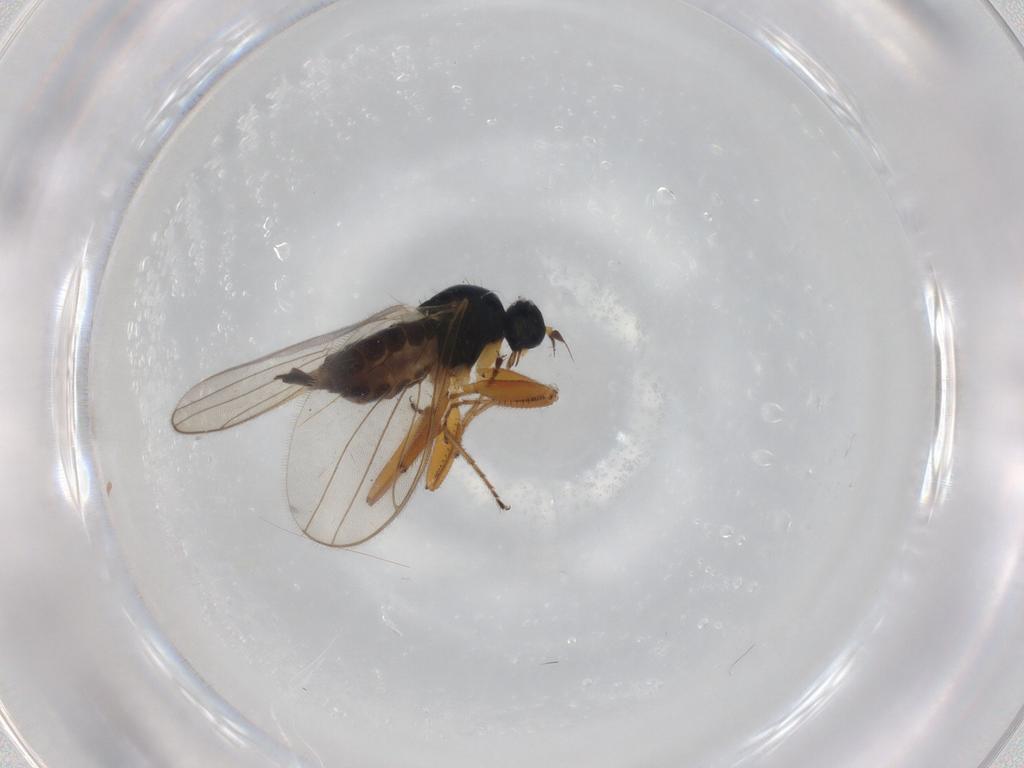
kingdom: Animalia
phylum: Arthropoda
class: Insecta
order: Diptera
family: Hybotidae
